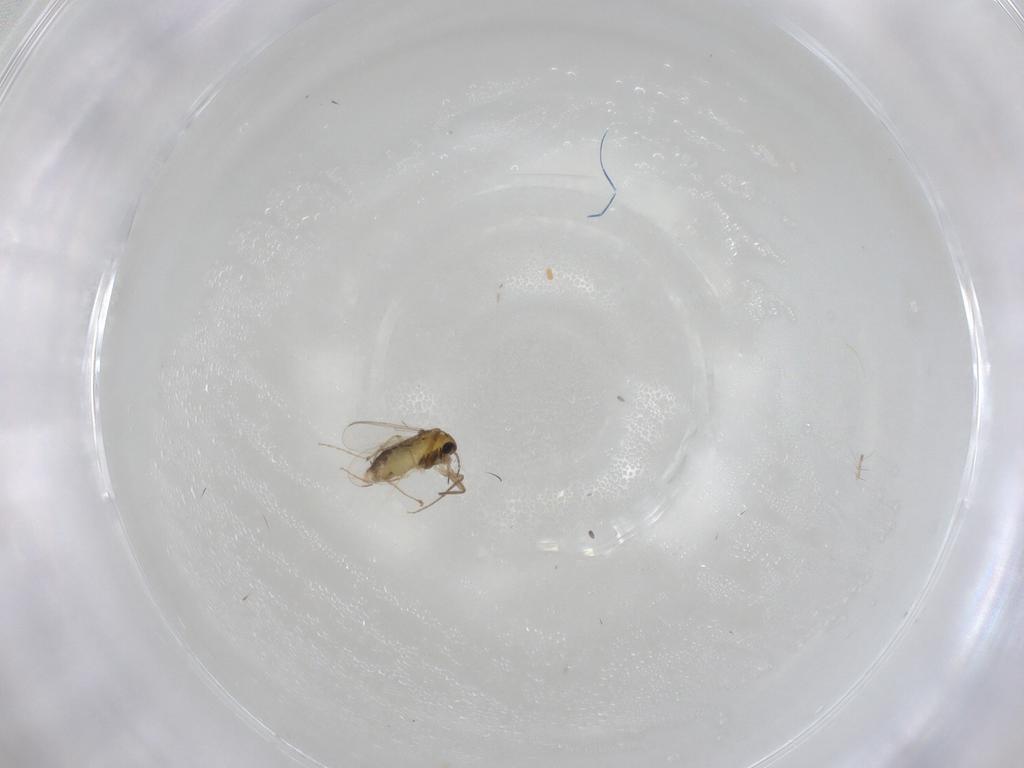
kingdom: Animalia
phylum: Arthropoda
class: Insecta
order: Diptera
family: Chironomidae
